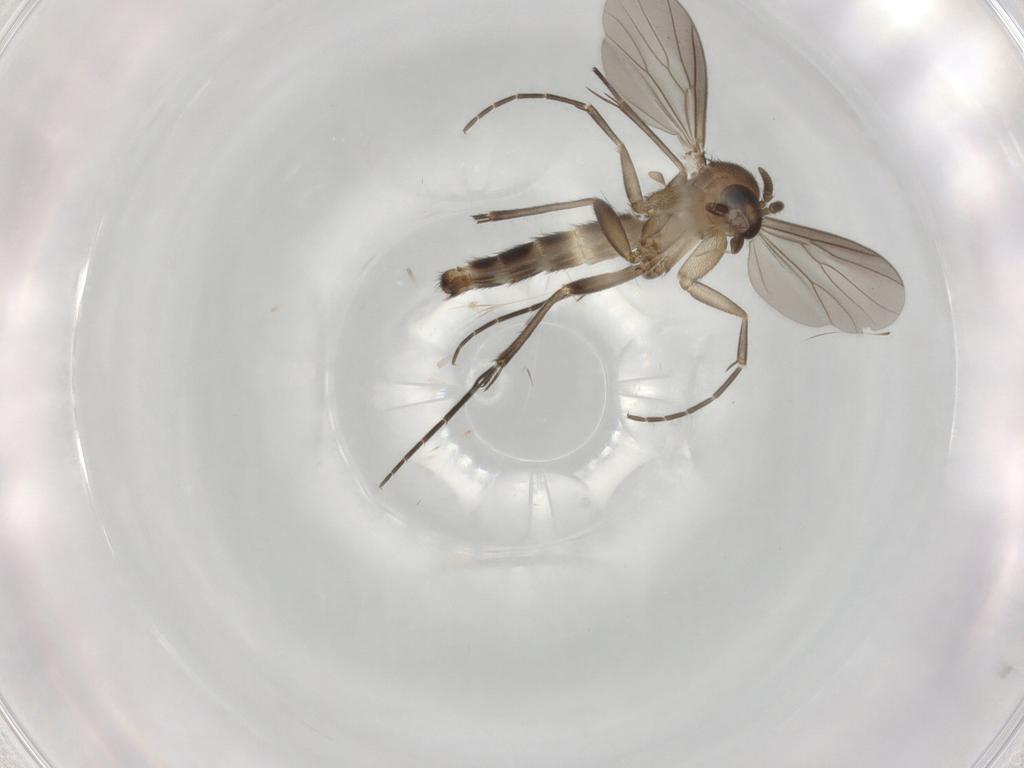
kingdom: Animalia
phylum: Arthropoda
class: Insecta
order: Diptera
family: Mycetophilidae
